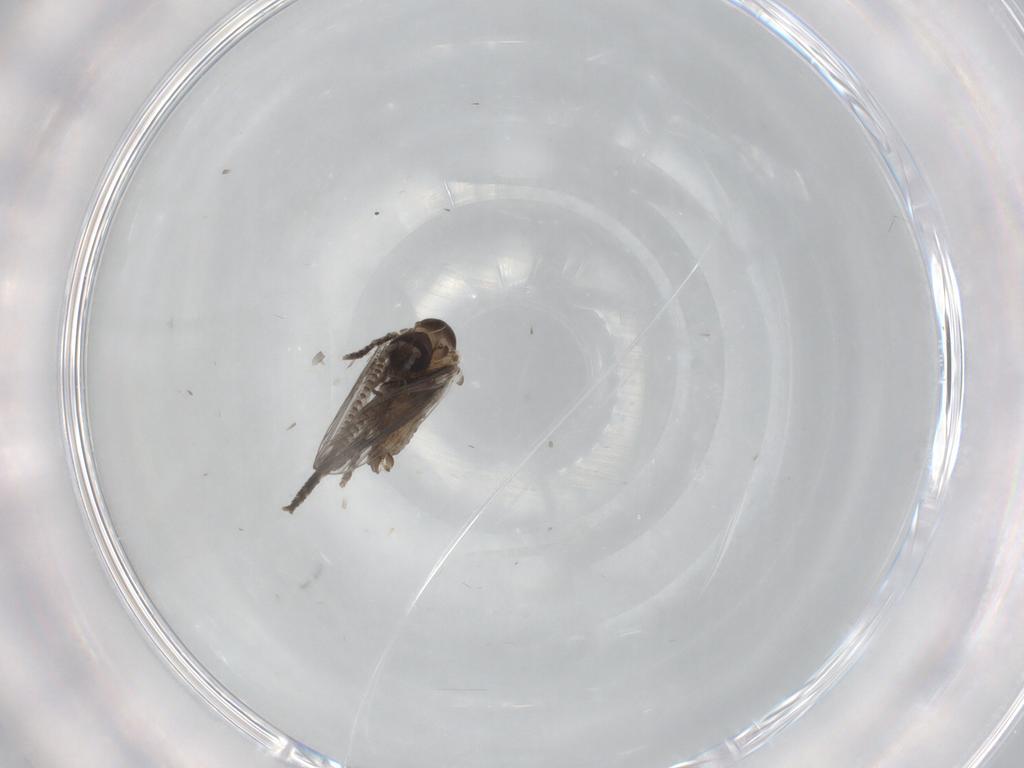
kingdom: Animalia
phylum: Arthropoda
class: Insecta
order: Diptera
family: Psychodidae
